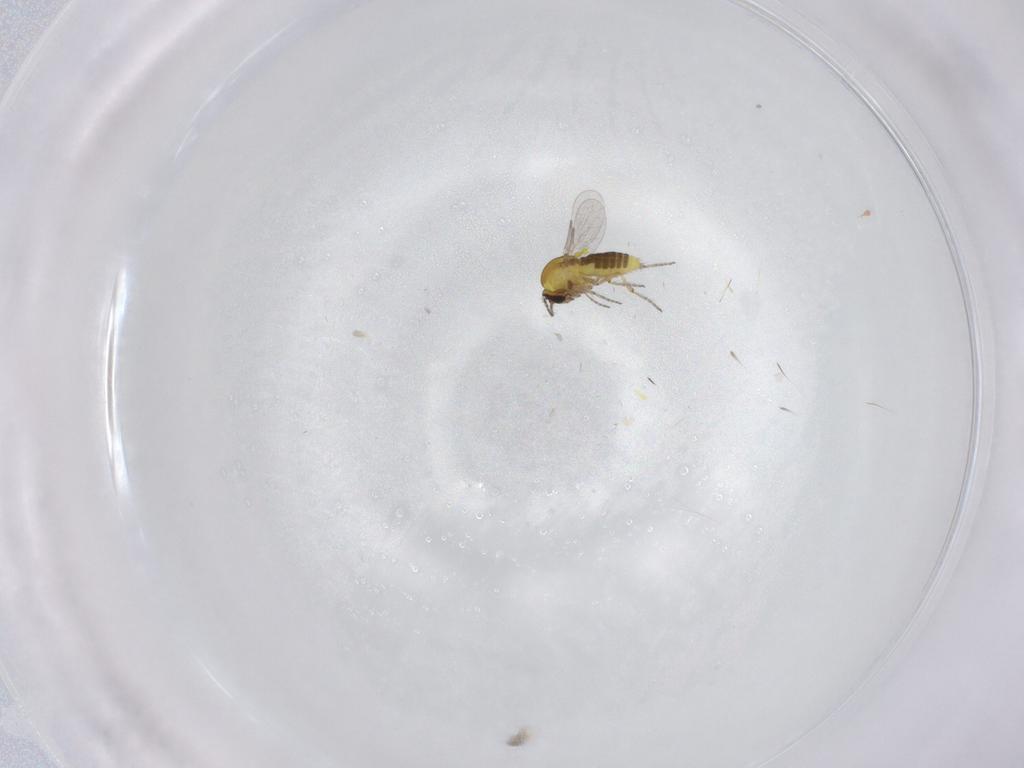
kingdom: Animalia
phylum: Arthropoda
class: Insecta
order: Diptera
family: Ceratopogonidae
